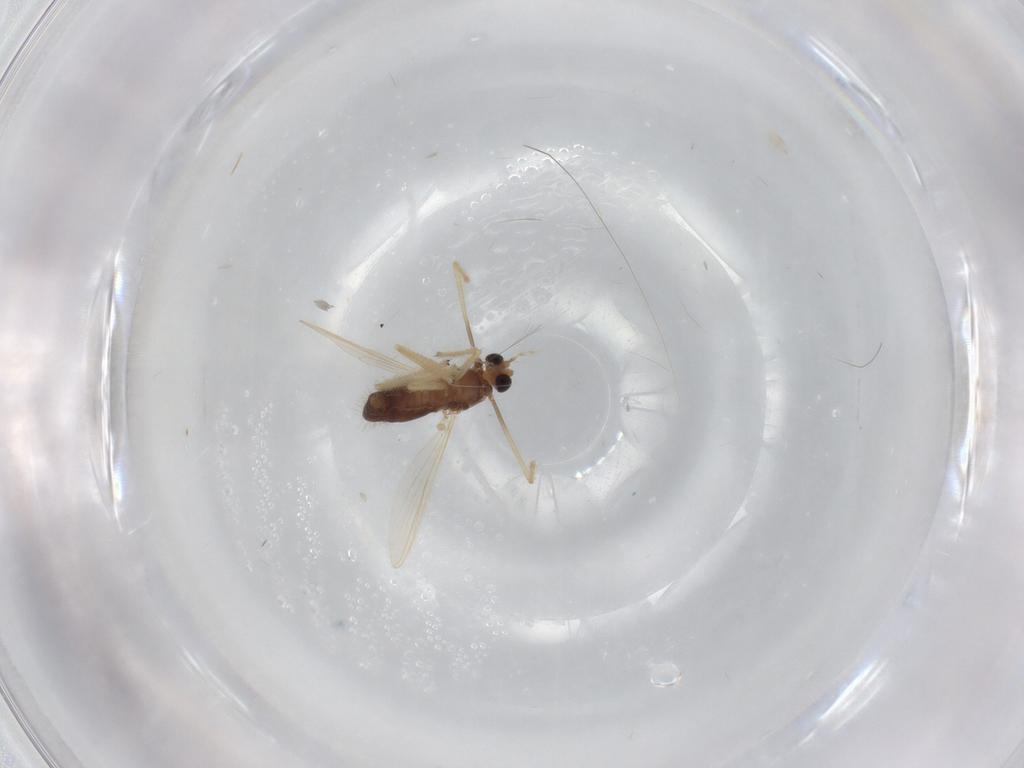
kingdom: Animalia
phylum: Arthropoda
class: Insecta
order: Diptera
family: Chironomidae
